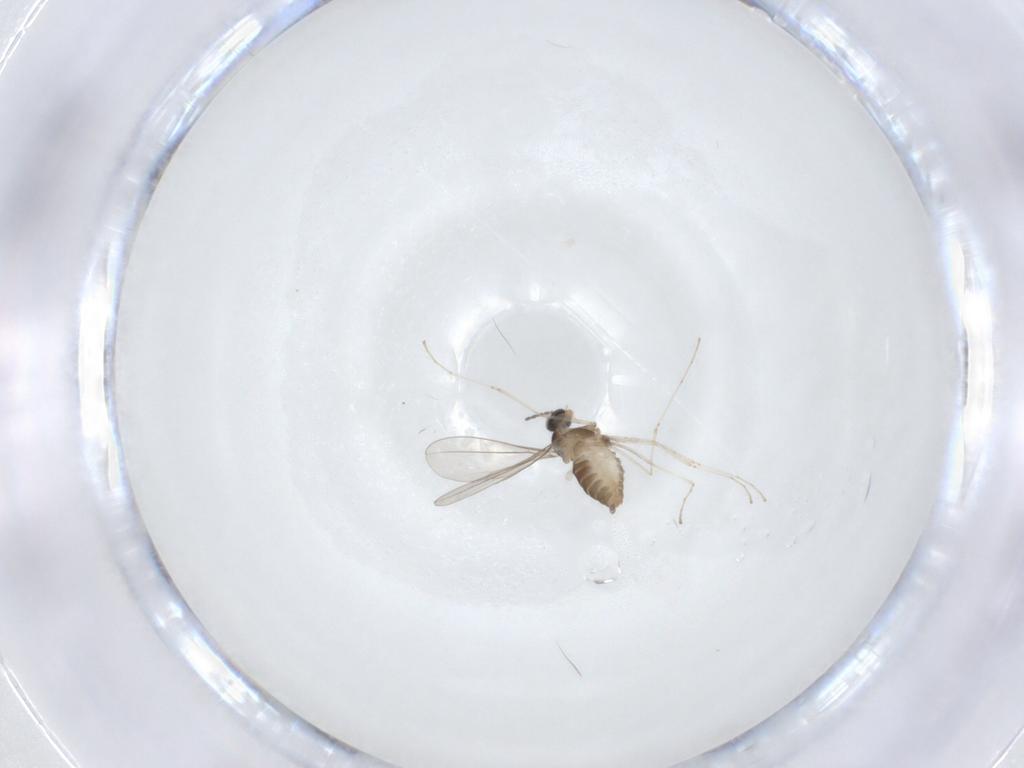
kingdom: Animalia
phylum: Arthropoda
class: Insecta
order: Diptera
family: Cecidomyiidae
